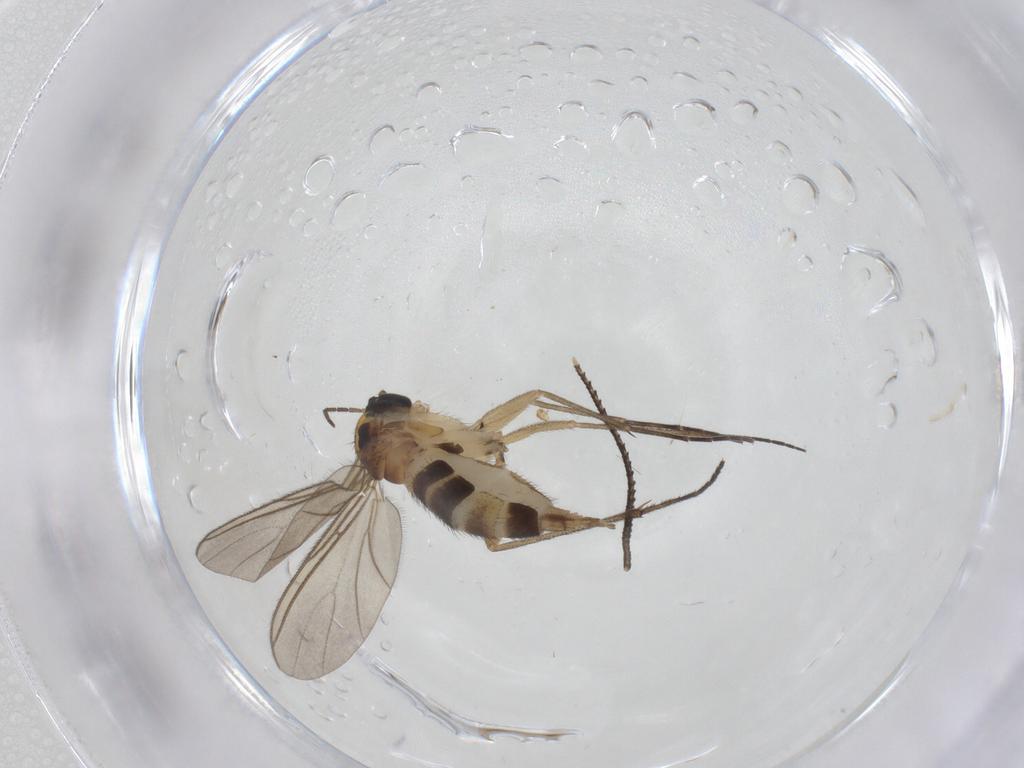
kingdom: Animalia
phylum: Arthropoda
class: Insecta
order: Diptera
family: Sciaridae
